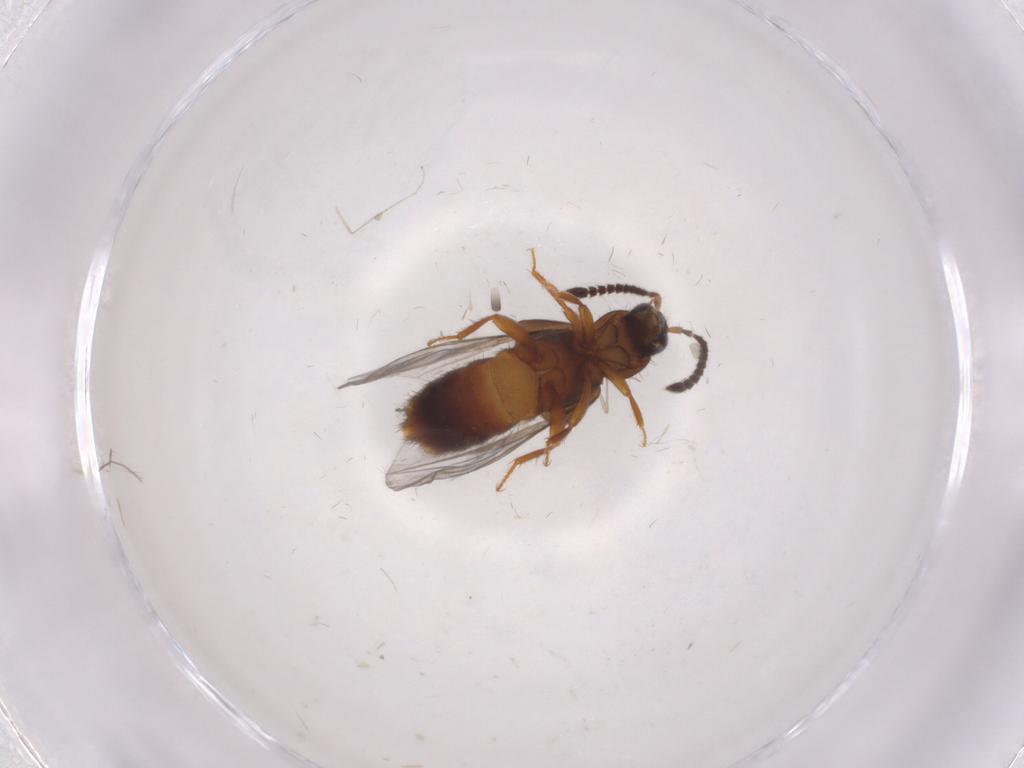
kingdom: Animalia
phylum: Arthropoda
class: Insecta
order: Coleoptera
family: Staphylinidae
